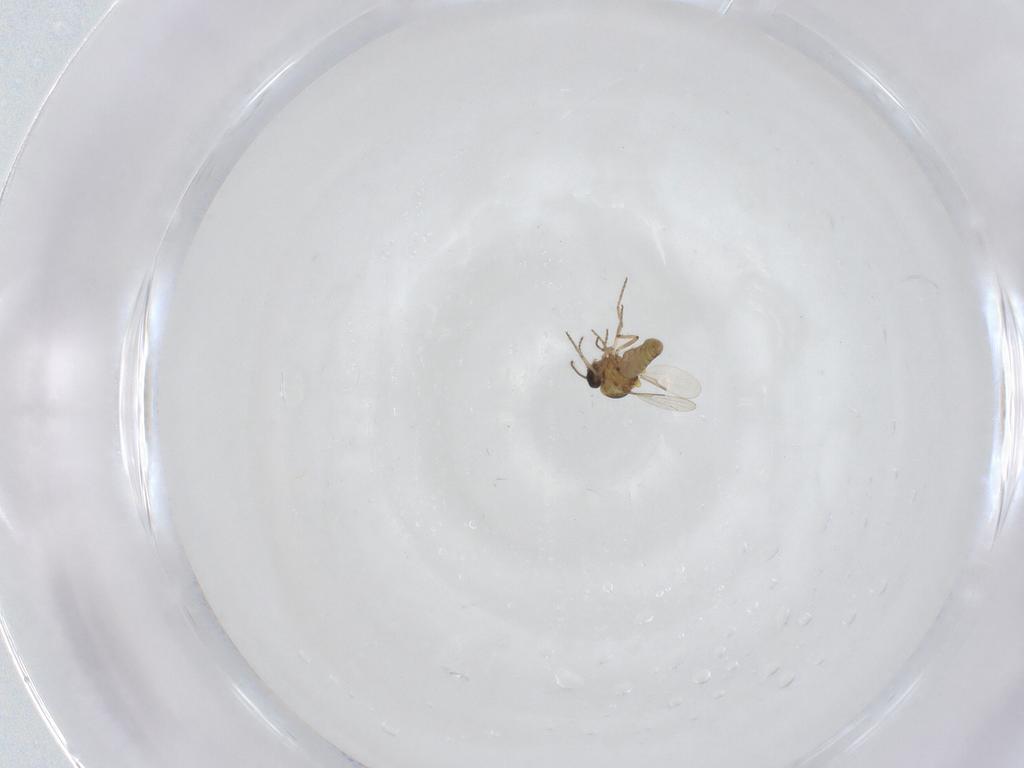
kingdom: Animalia
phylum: Arthropoda
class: Insecta
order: Diptera
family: Ceratopogonidae
